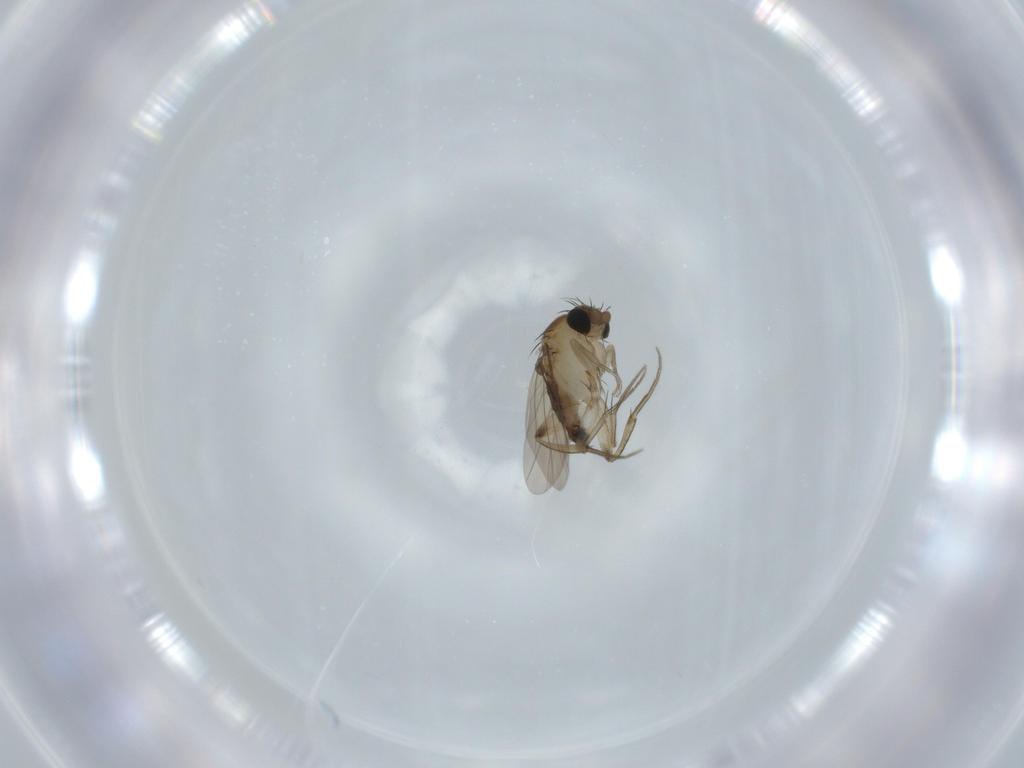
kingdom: Animalia
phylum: Arthropoda
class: Insecta
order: Diptera
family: Phoridae
